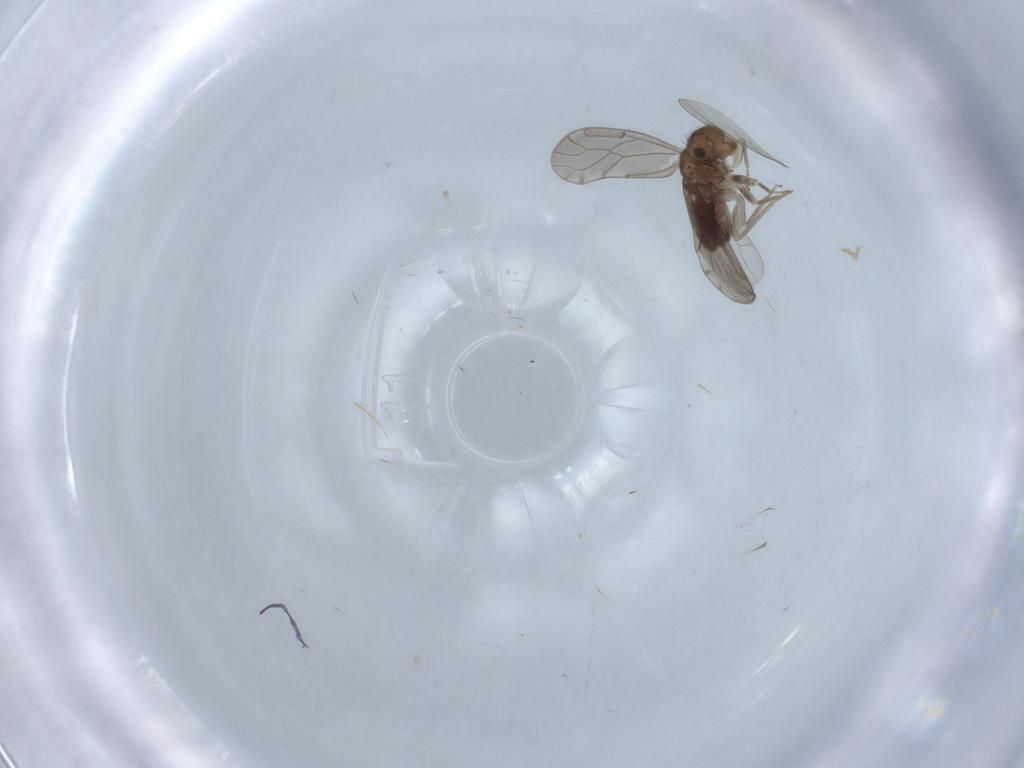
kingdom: Animalia
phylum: Arthropoda
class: Insecta
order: Psocodea
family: Ectopsocidae
